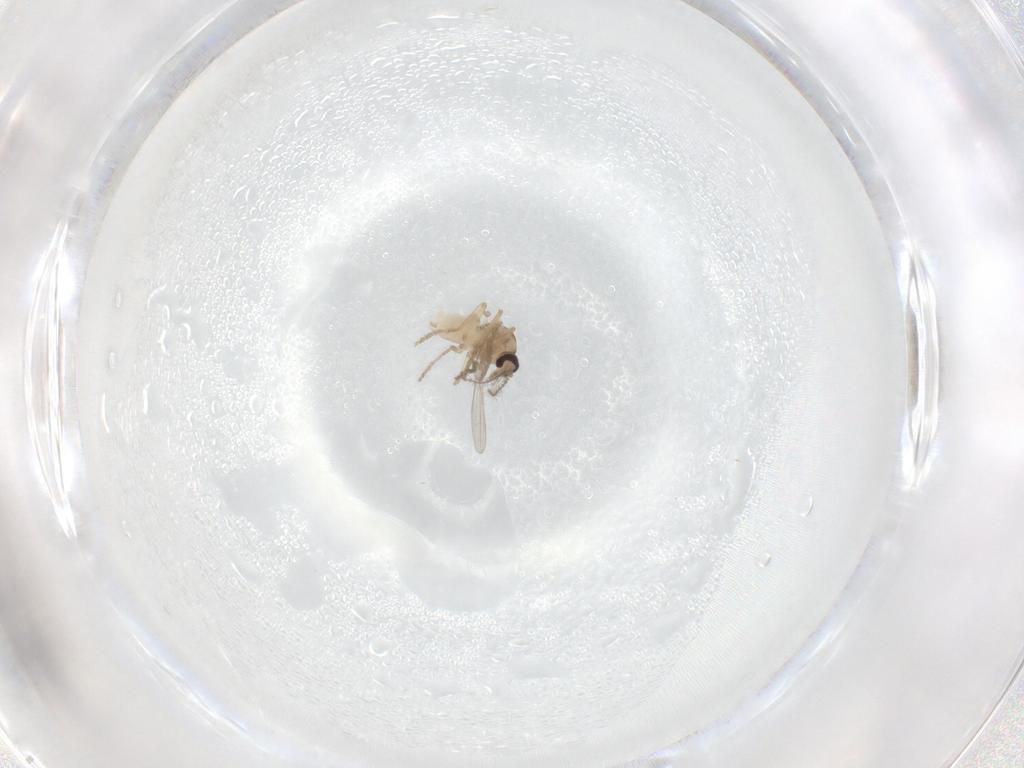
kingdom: Animalia
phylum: Arthropoda
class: Insecta
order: Diptera
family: Ceratopogonidae
